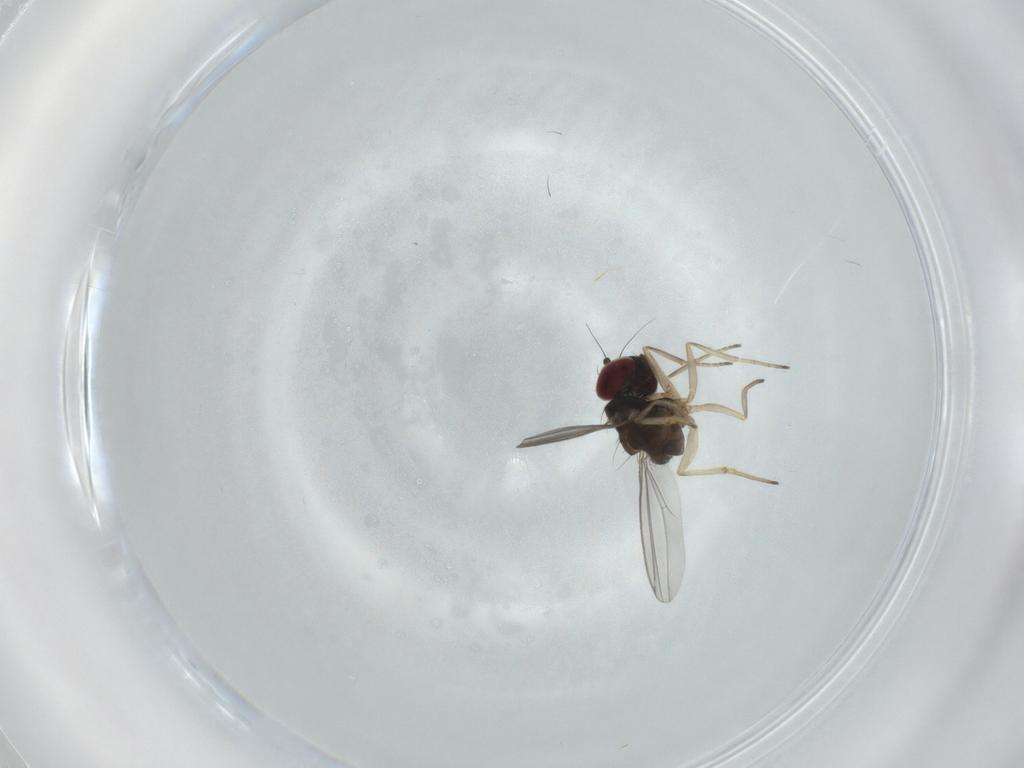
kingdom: Animalia
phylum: Arthropoda
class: Insecta
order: Diptera
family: Dolichopodidae
